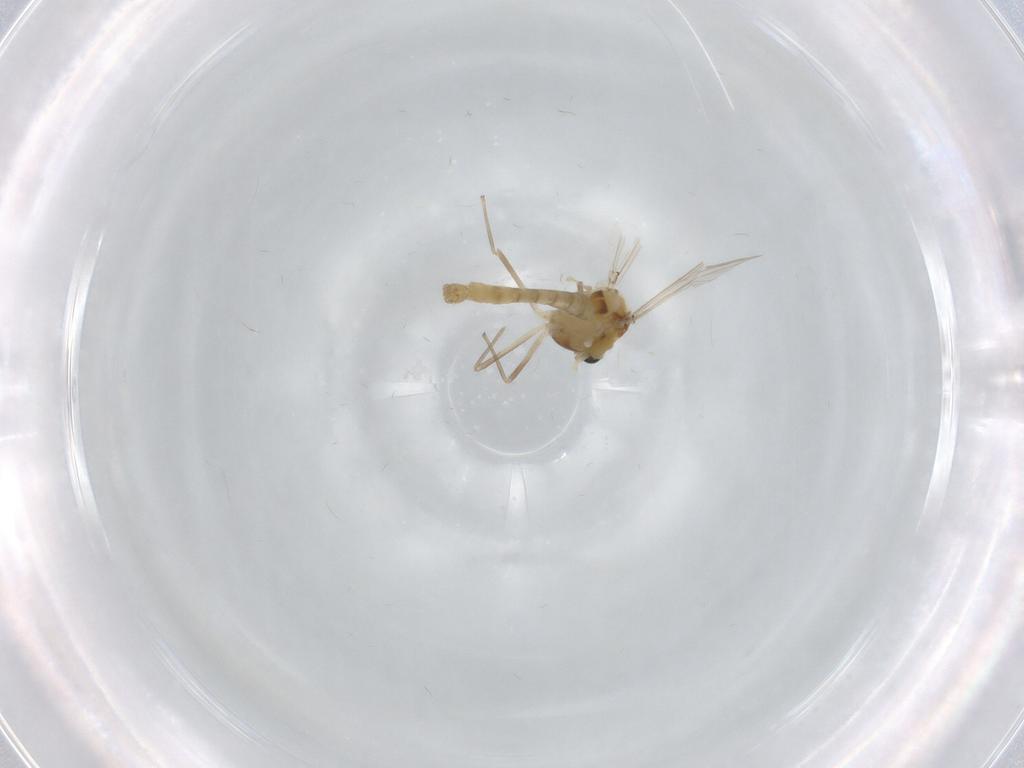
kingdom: Animalia
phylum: Arthropoda
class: Insecta
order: Diptera
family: Chironomidae
